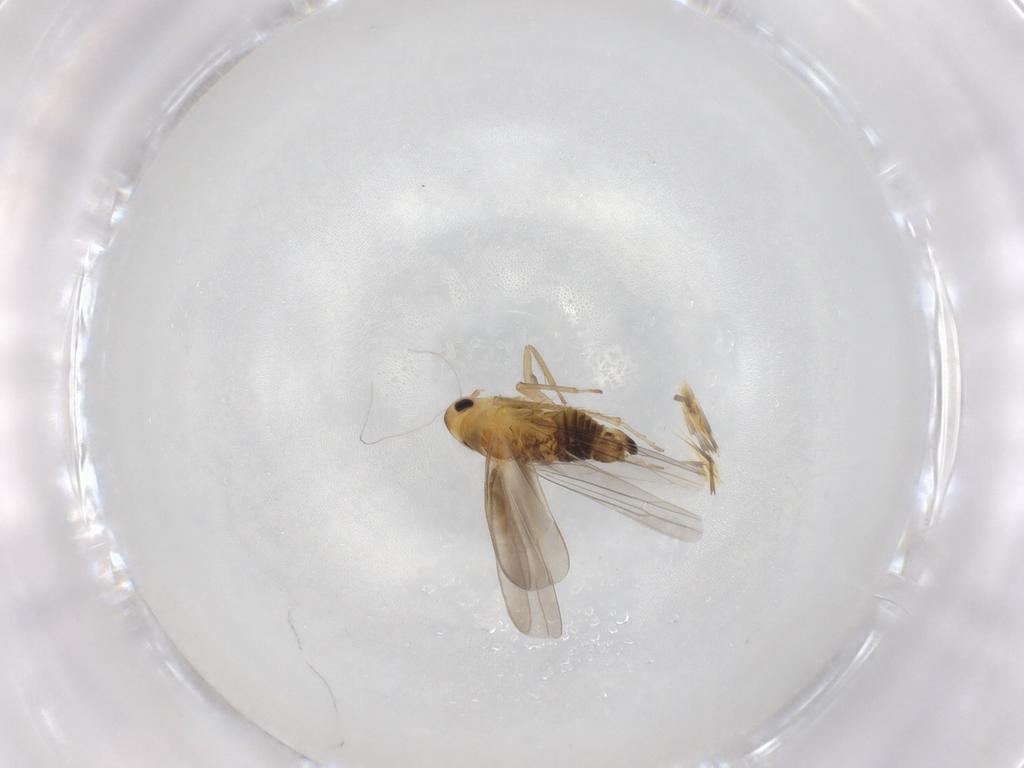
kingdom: Animalia
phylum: Arthropoda
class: Insecta
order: Hemiptera
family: Cicadellidae
